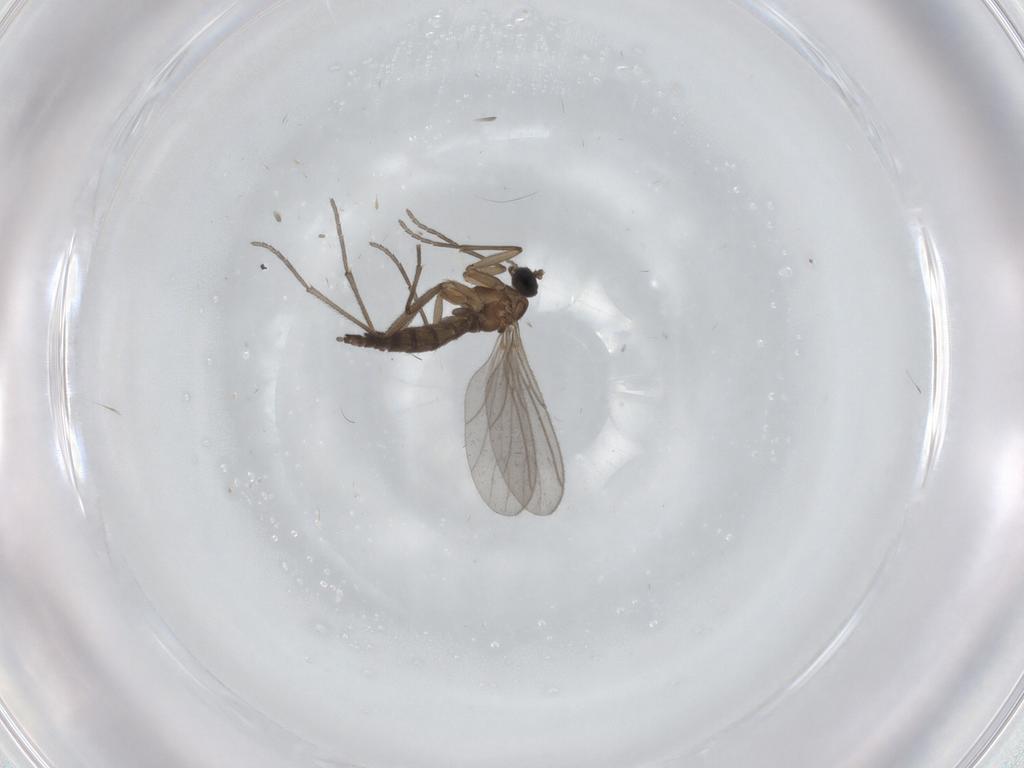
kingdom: Animalia
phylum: Arthropoda
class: Insecta
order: Diptera
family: Sciaridae
